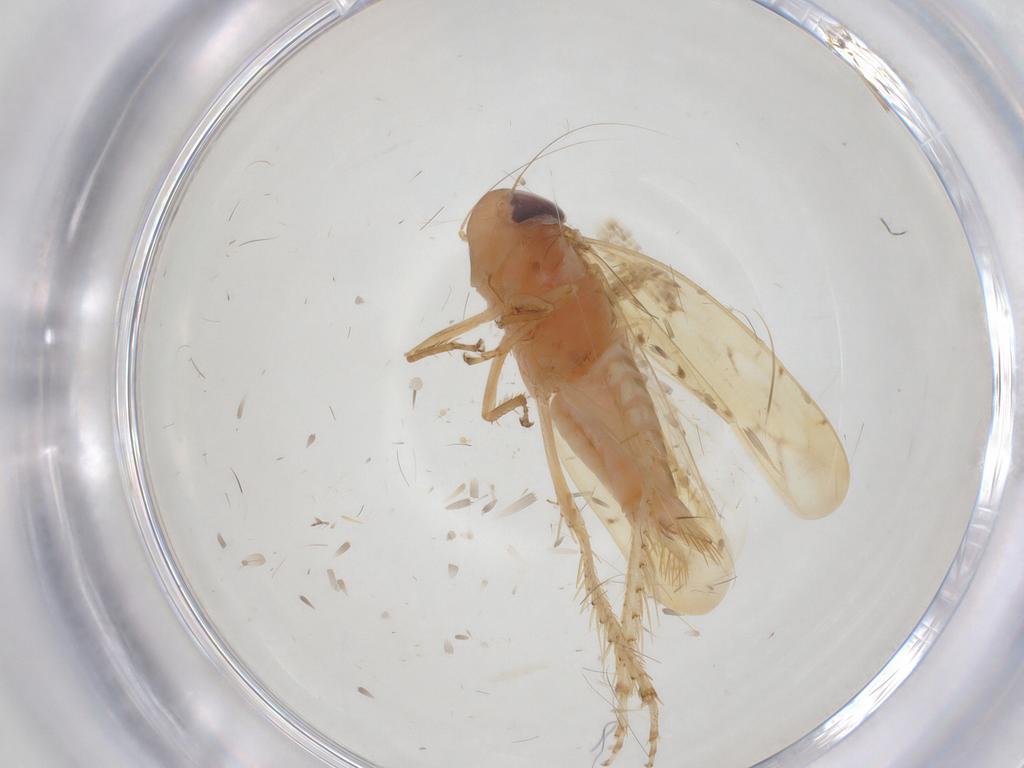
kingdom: Animalia
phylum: Arthropoda
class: Insecta
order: Hemiptera
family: Cicadellidae
